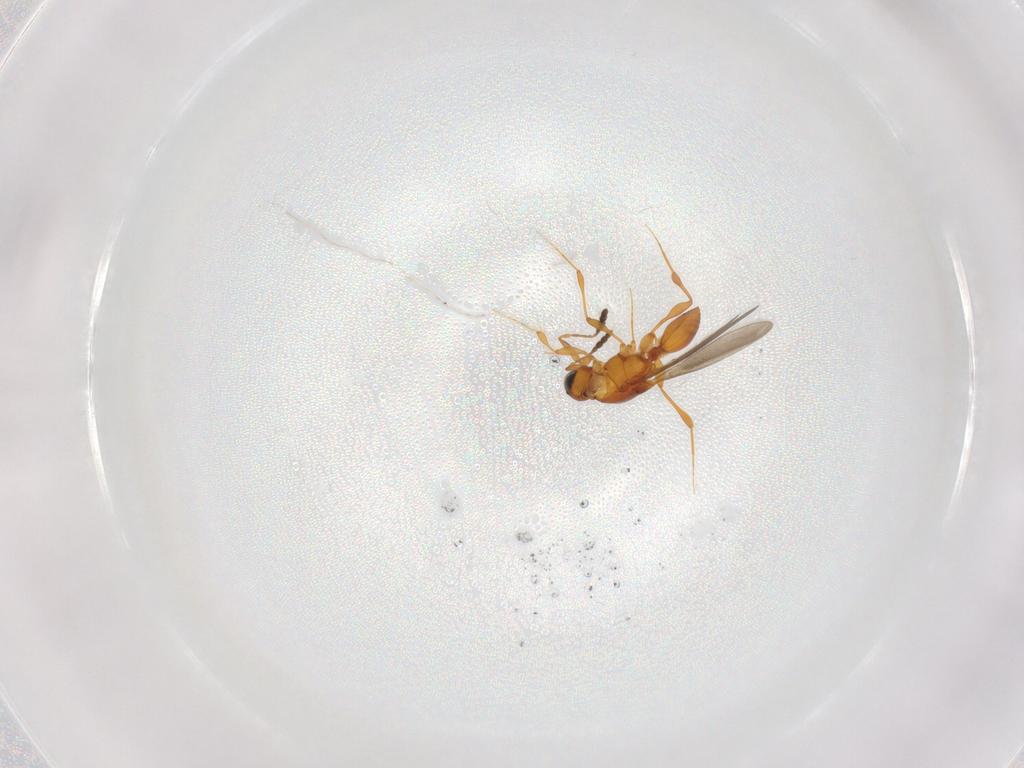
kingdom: Animalia
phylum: Arthropoda
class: Insecta
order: Hymenoptera
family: Platygastridae
